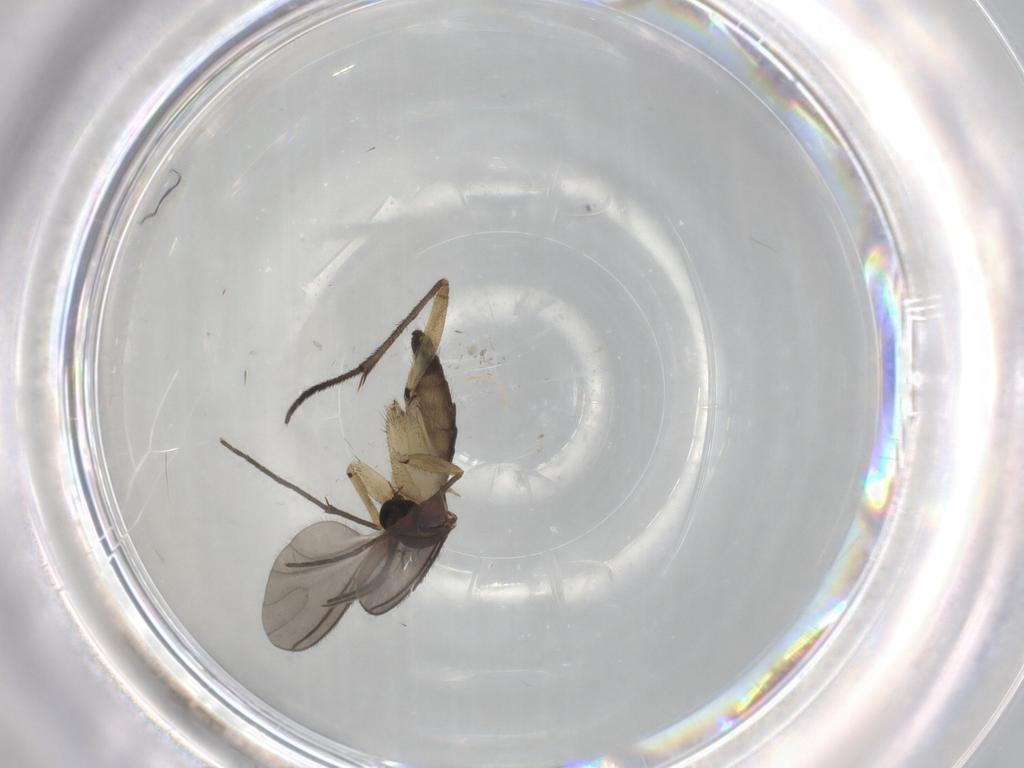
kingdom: Animalia
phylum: Arthropoda
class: Insecta
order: Diptera
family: Sciaridae
